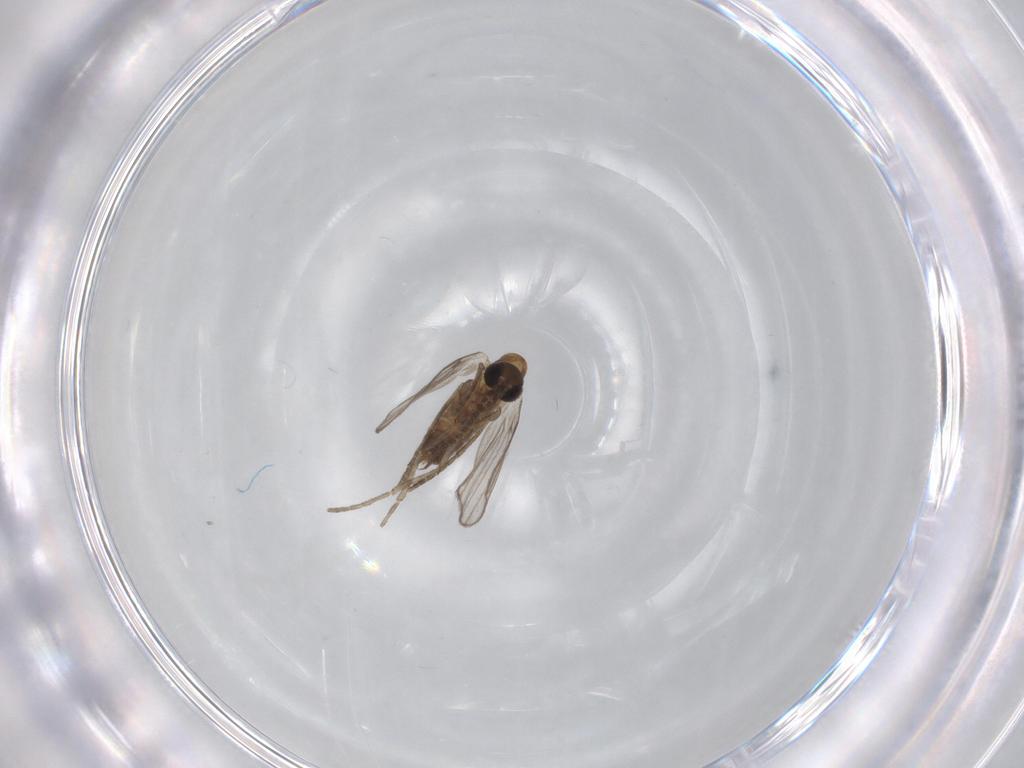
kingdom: Animalia
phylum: Arthropoda
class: Insecta
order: Diptera
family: Psychodidae
